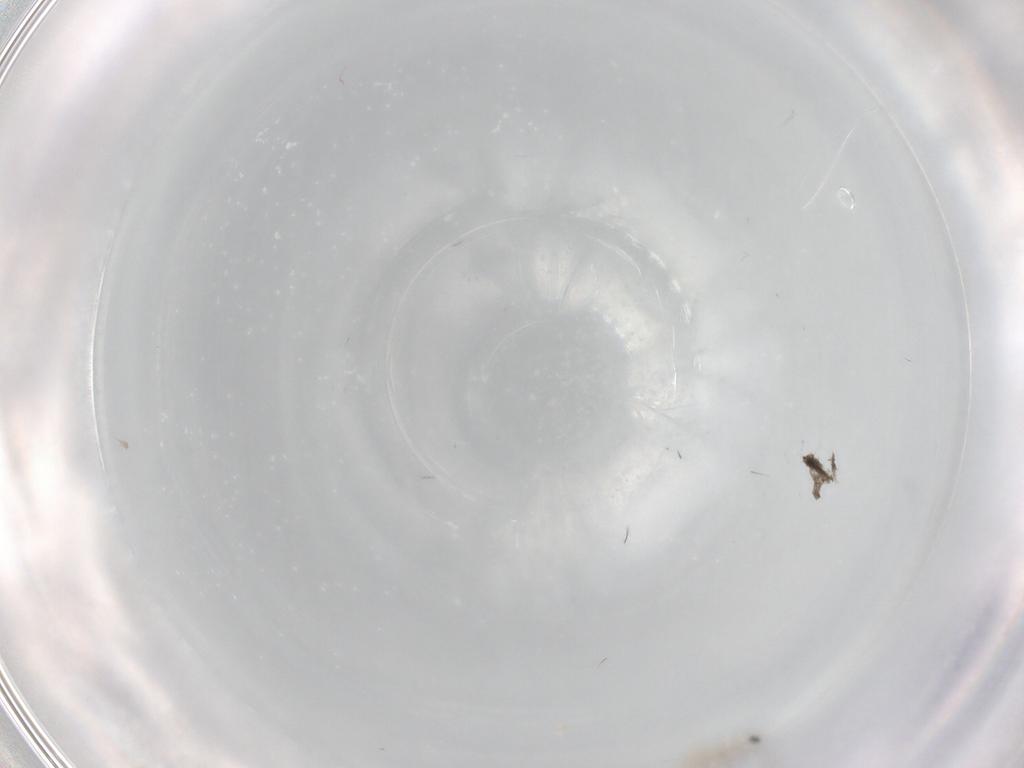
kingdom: Animalia
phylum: Arthropoda
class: Insecta
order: Diptera
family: Chironomidae
